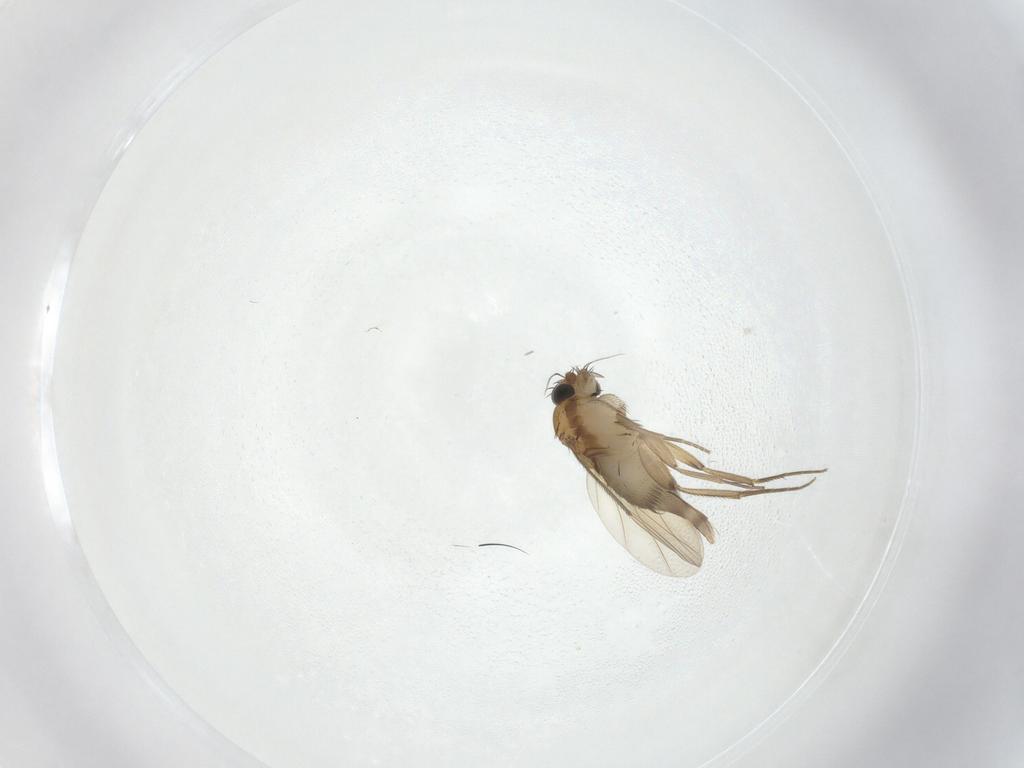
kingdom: Animalia
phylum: Arthropoda
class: Insecta
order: Diptera
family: Phoridae
